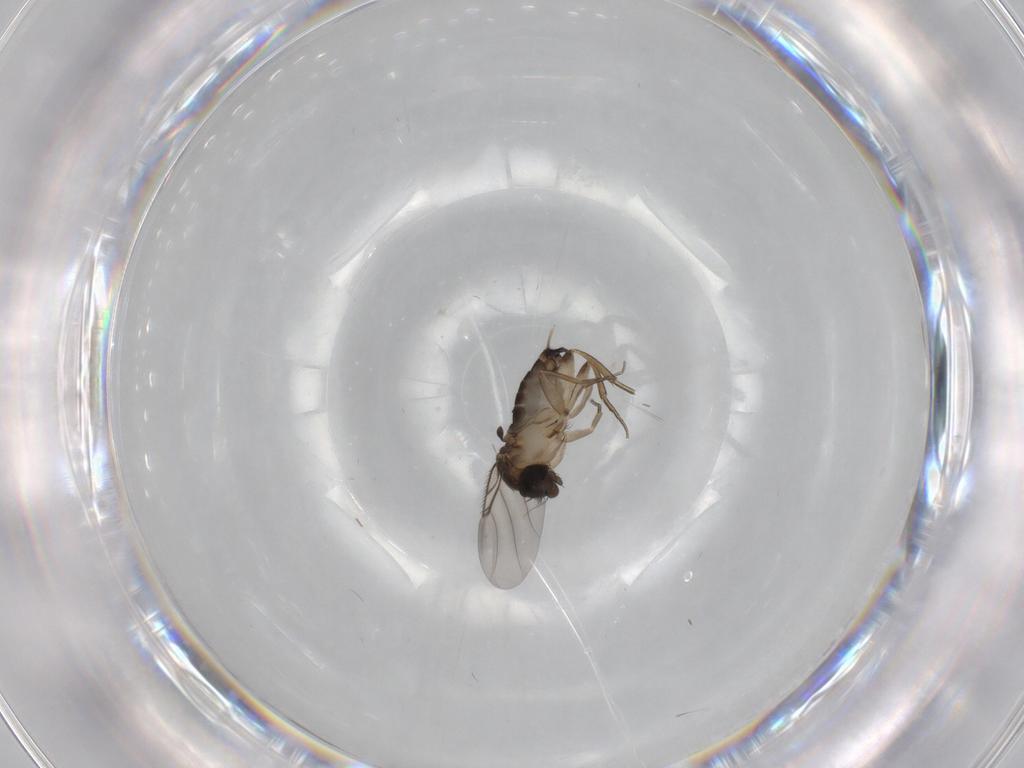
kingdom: Animalia
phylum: Arthropoda
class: Insecta
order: Diptera
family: Phoridae
